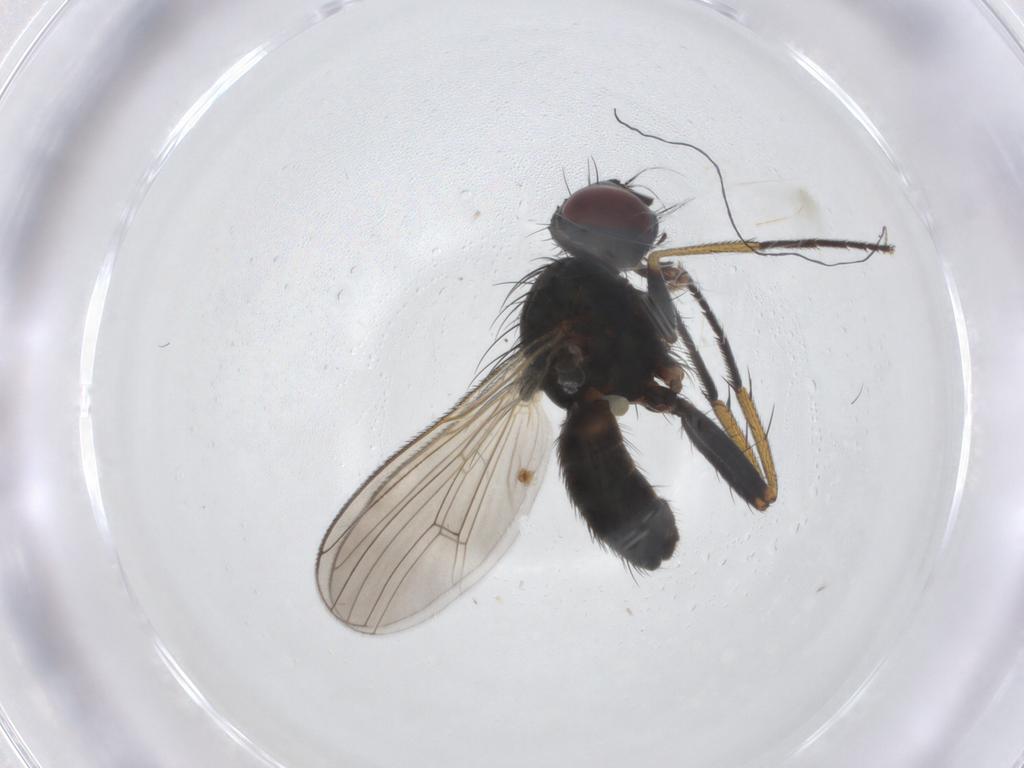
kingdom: Animalia
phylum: Arthropoda
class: Insecta
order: Diptera
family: Muscidae
